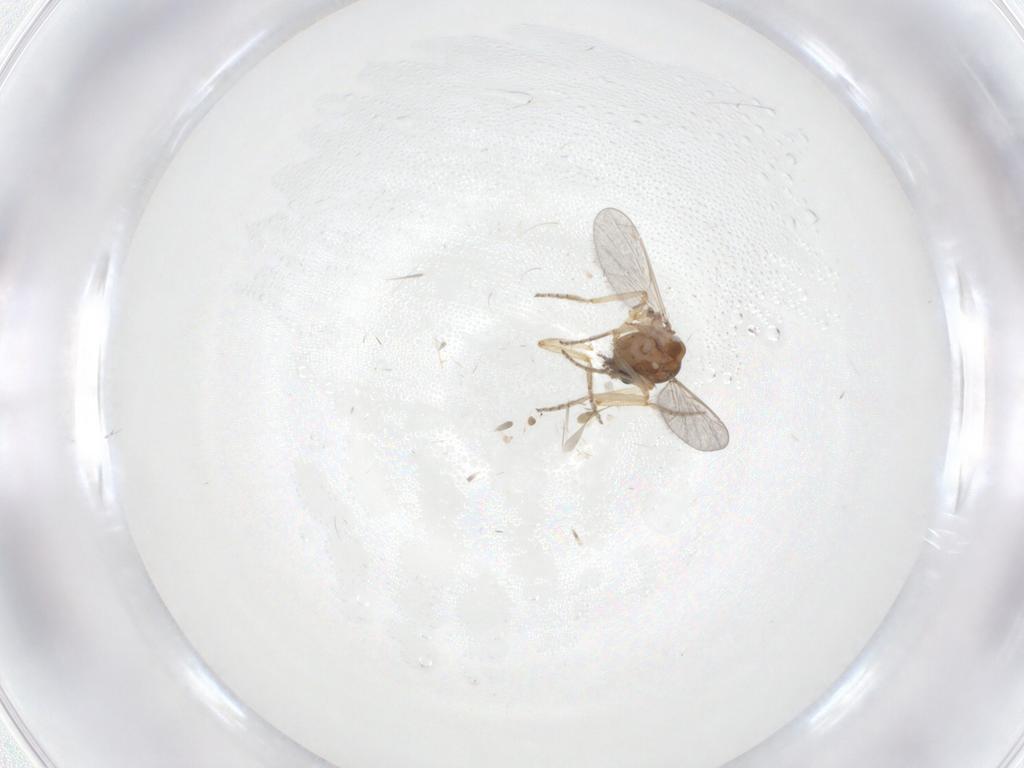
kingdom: Animalia
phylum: Arthropoda
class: Insecta
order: Diptera
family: Ceratopogonidae
